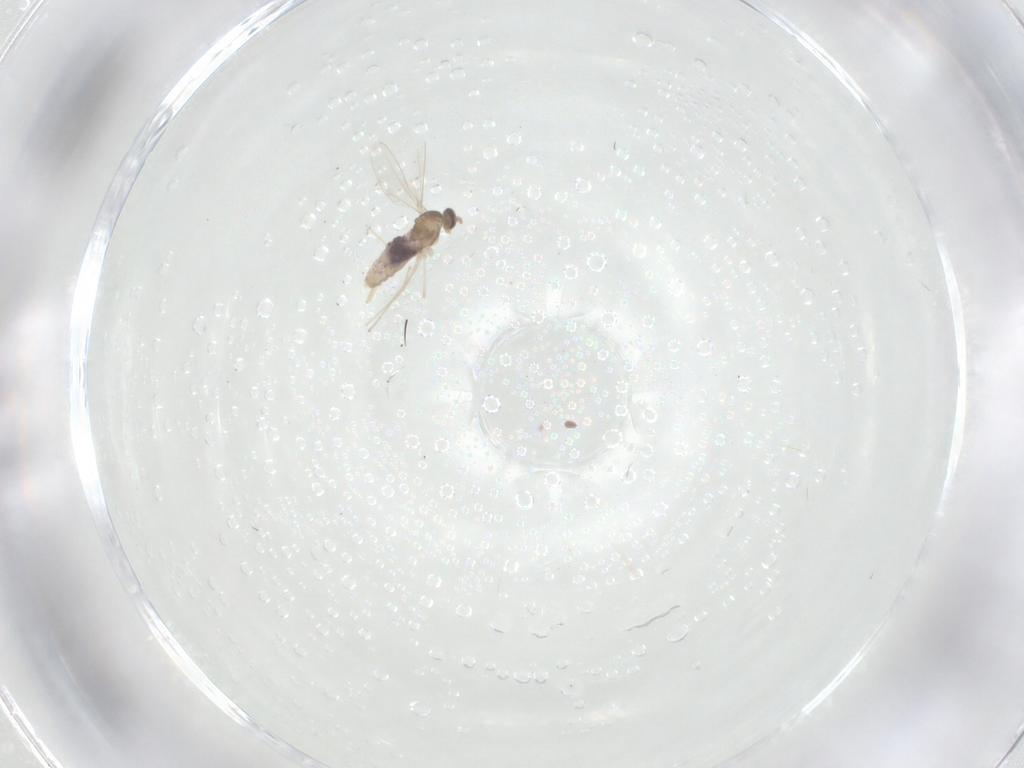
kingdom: Animalia
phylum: Arthropoda
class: Insecta
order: Diptera
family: Cecidomyiidae
